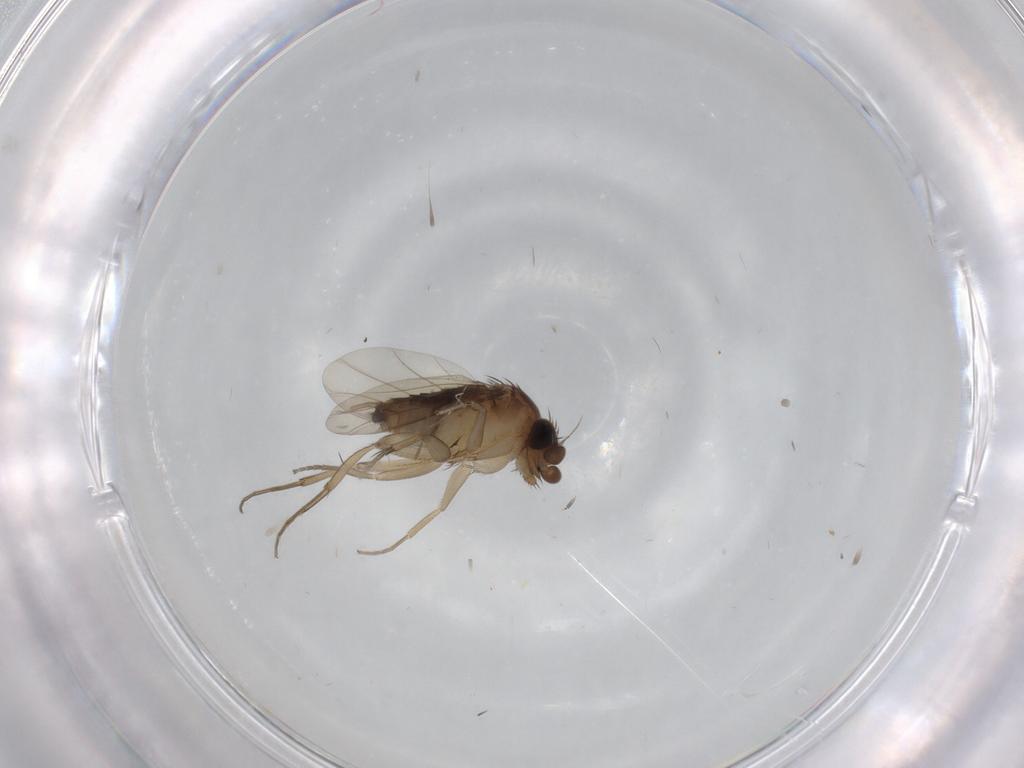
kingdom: Animalia
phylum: Arthropoda
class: Insecta
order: Diptera
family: Phoridae
